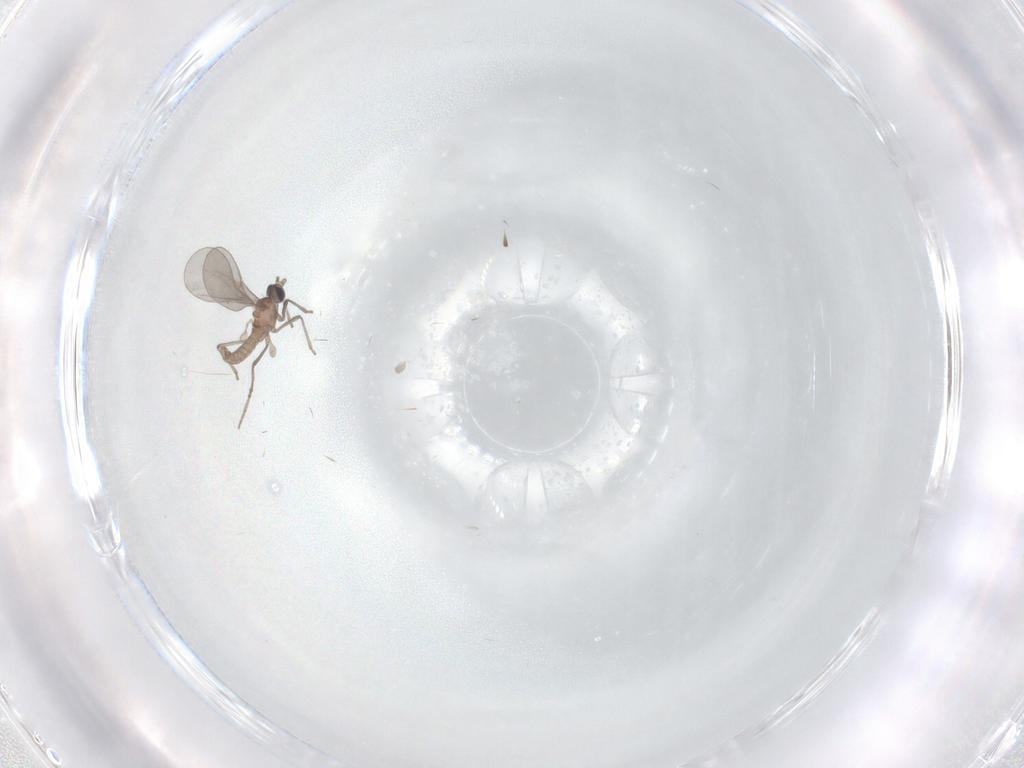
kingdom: Animalia
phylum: Arthropoda
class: Insecta
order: Diptera
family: Cecidomyiidae
